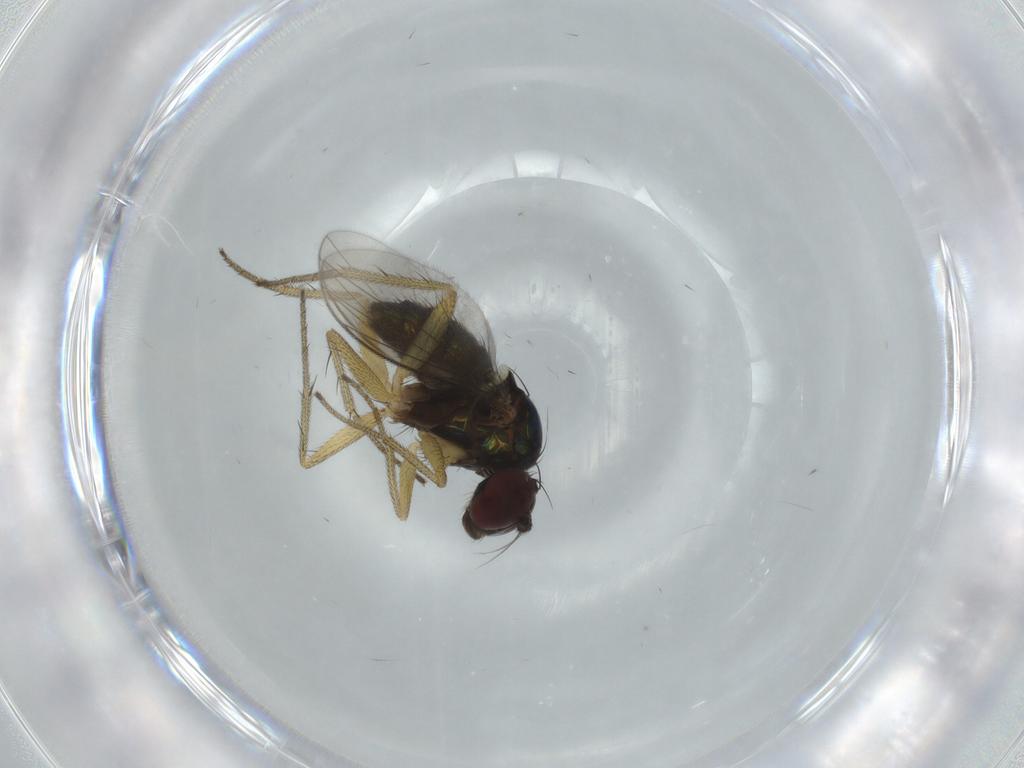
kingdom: Animalia
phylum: Arthropoda
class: Insecta
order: Diptera
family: Dolichopodidae
